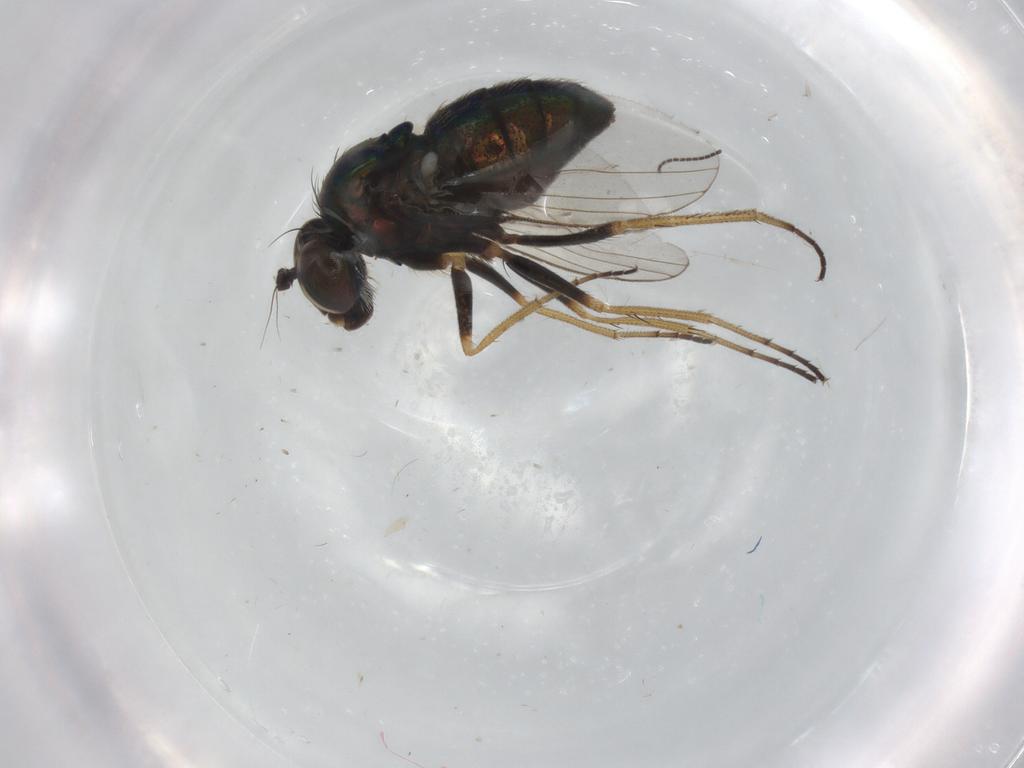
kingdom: Animalia
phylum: Arthropoda
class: Insecta
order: Diptera
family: Dolichopodidae
